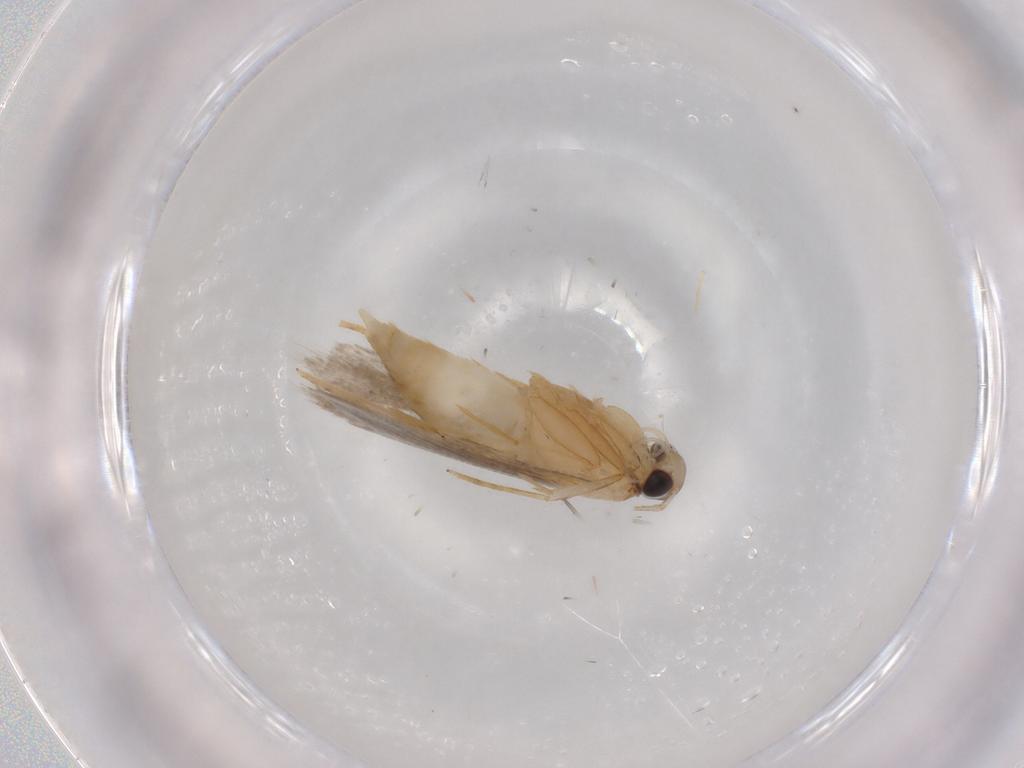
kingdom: Animalia
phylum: Arthropoda
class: Insecta
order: Lepidoptera
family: Autostichidae
